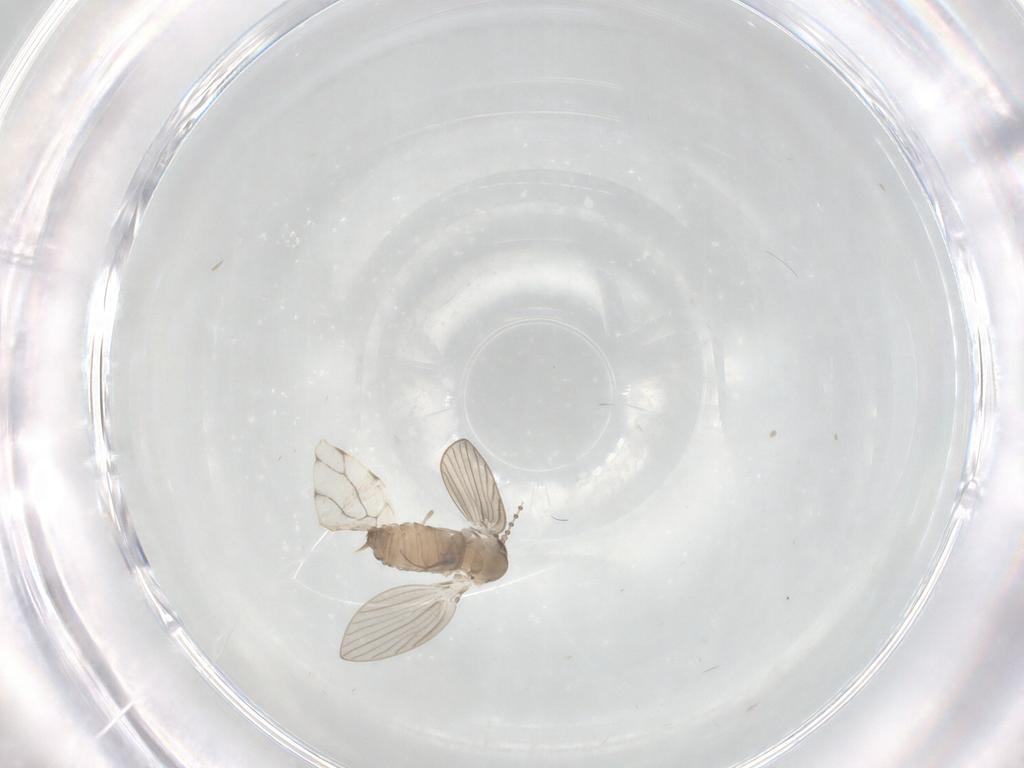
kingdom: Animalia
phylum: Arthropoda
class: Insecta
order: Diptera
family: Chironomidae
